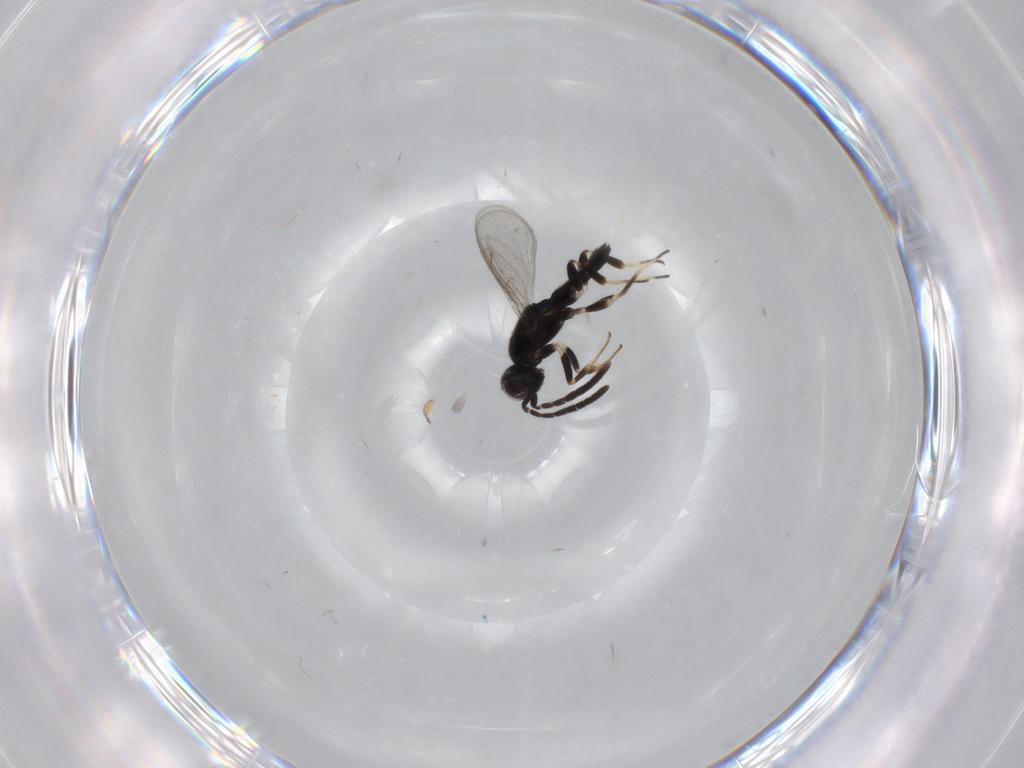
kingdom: Animalia
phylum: Arthropoda
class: Insecta
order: Hymenoptera
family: Eupelmidae
